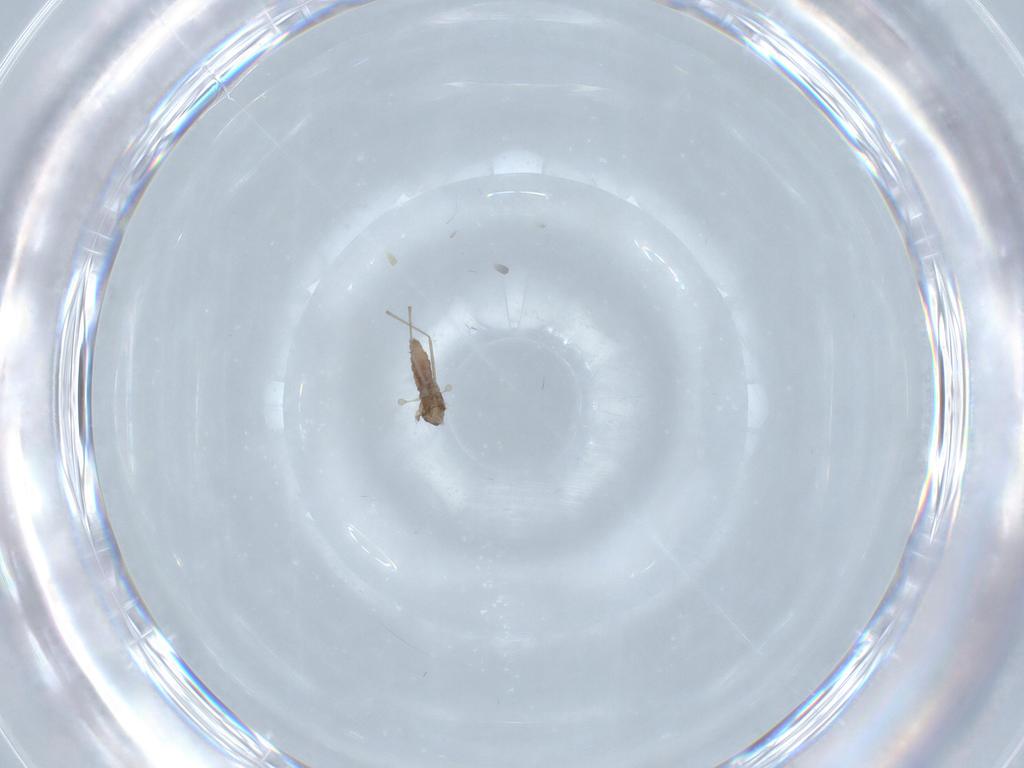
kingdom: Animalia
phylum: Arthropoda
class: Insecta
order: Diptera
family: Cecidomyiidae
